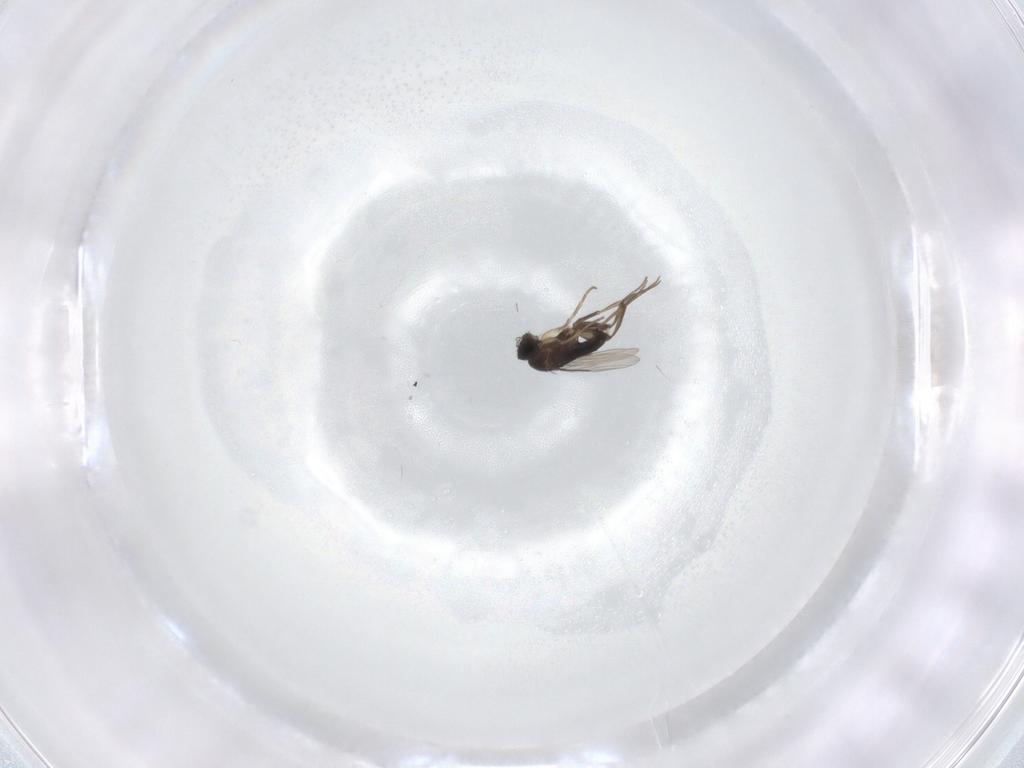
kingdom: Animalia
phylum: Arthropoda
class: Insecta
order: Diptera
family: Phoridae
